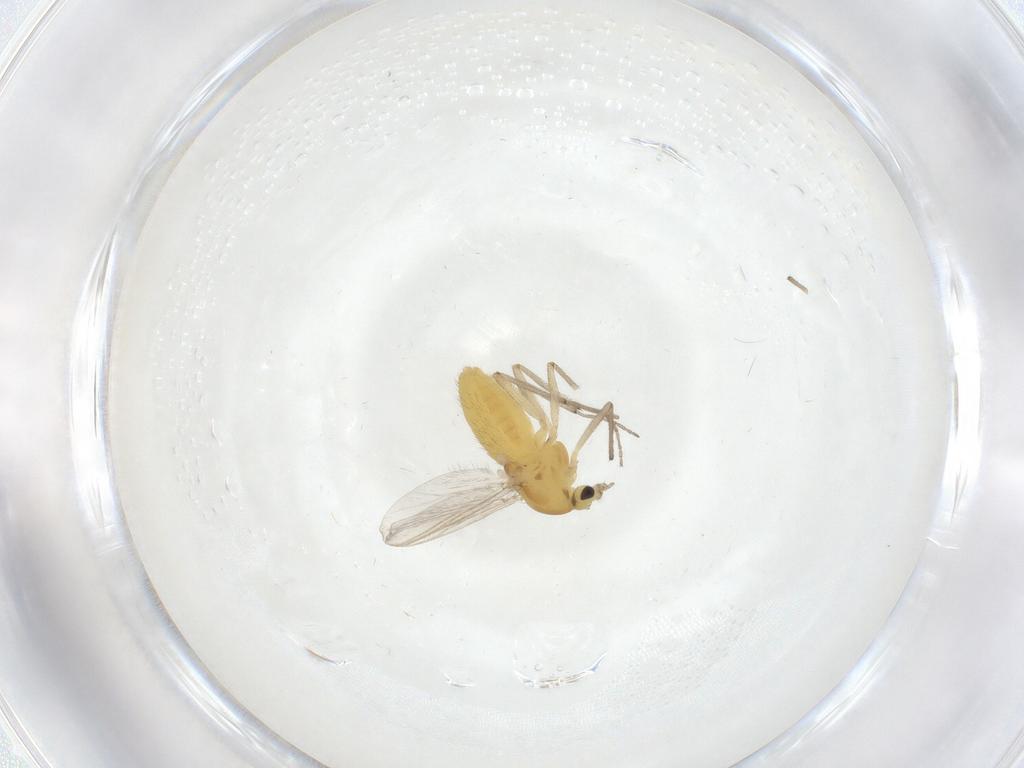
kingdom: Animalia
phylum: Arthropoda
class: Insecta
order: Diptera
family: Chironomidae
